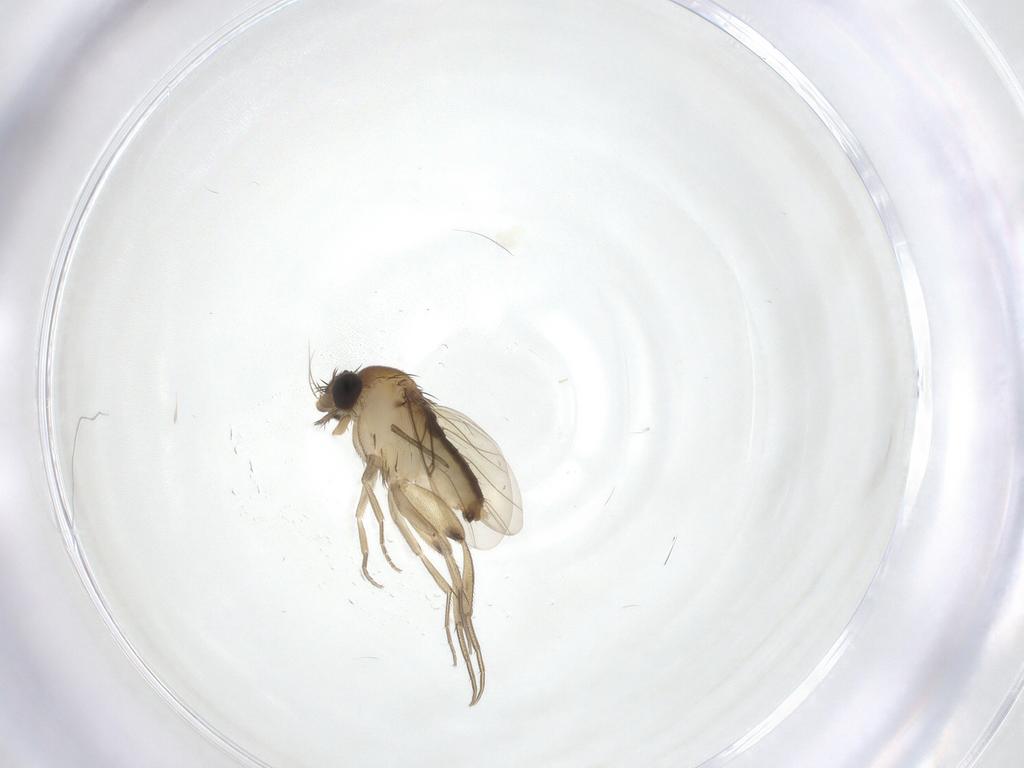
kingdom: Animalia
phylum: Arthropoda
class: Insecta
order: Diptera
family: Phoridae
